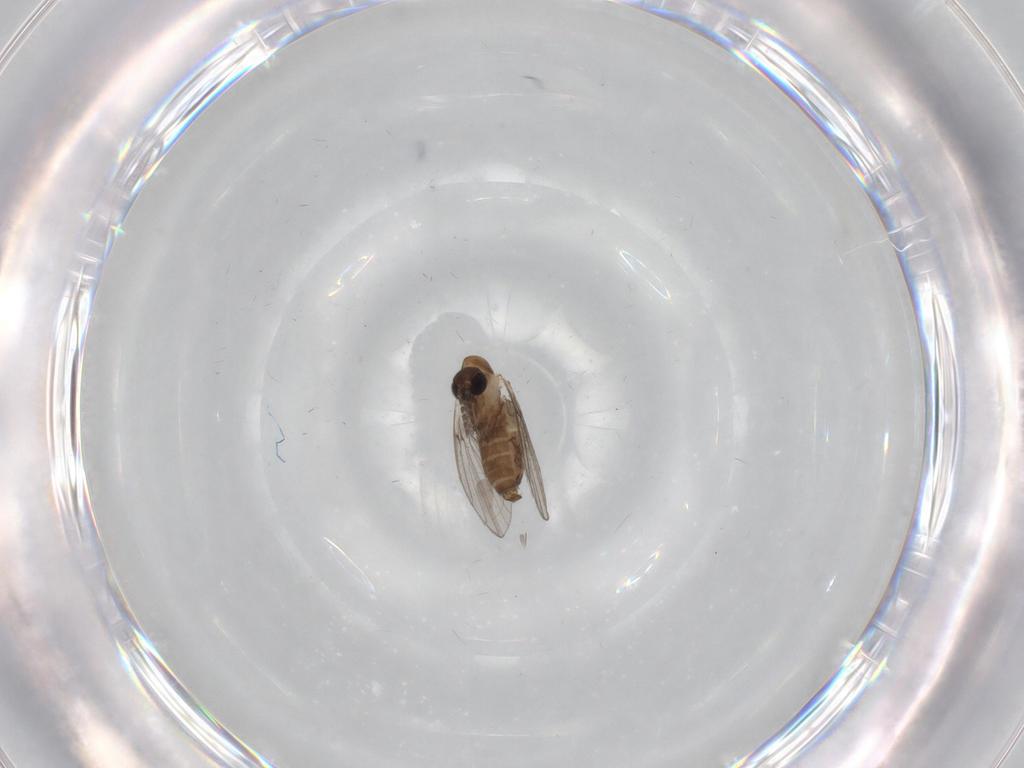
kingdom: Animalia
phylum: Arthropoda
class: Insecta
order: Diptera
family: Psychodidae
